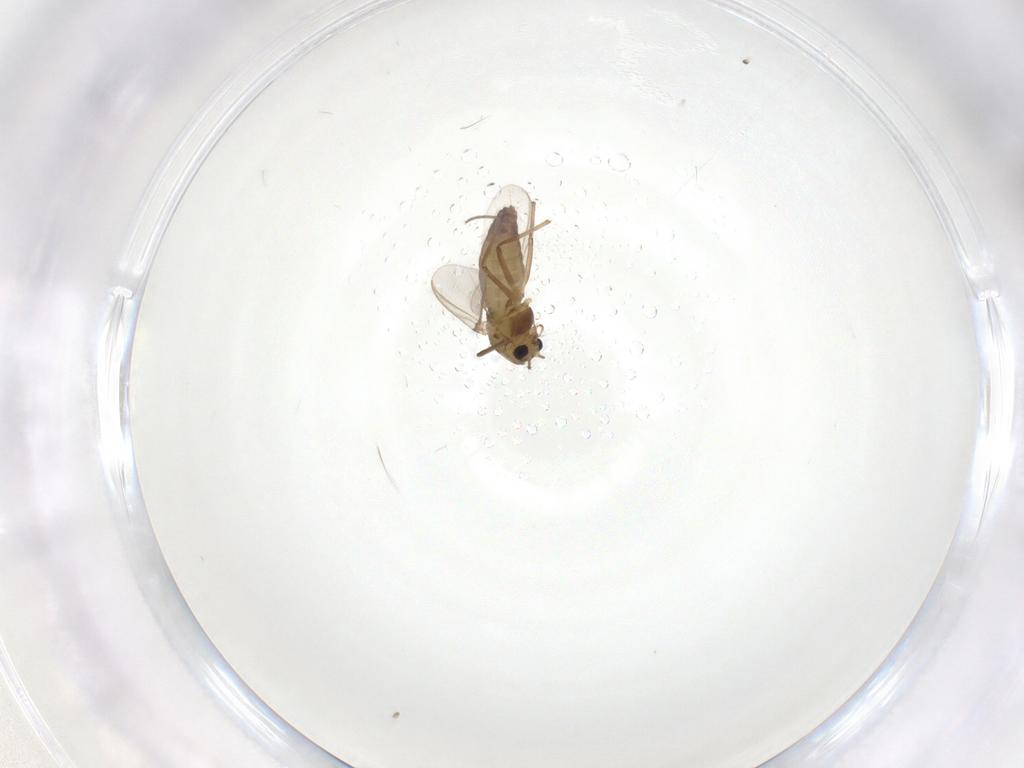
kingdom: Animalia
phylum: Arthropoda
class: Insecta
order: Diptera
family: Chironomidae
